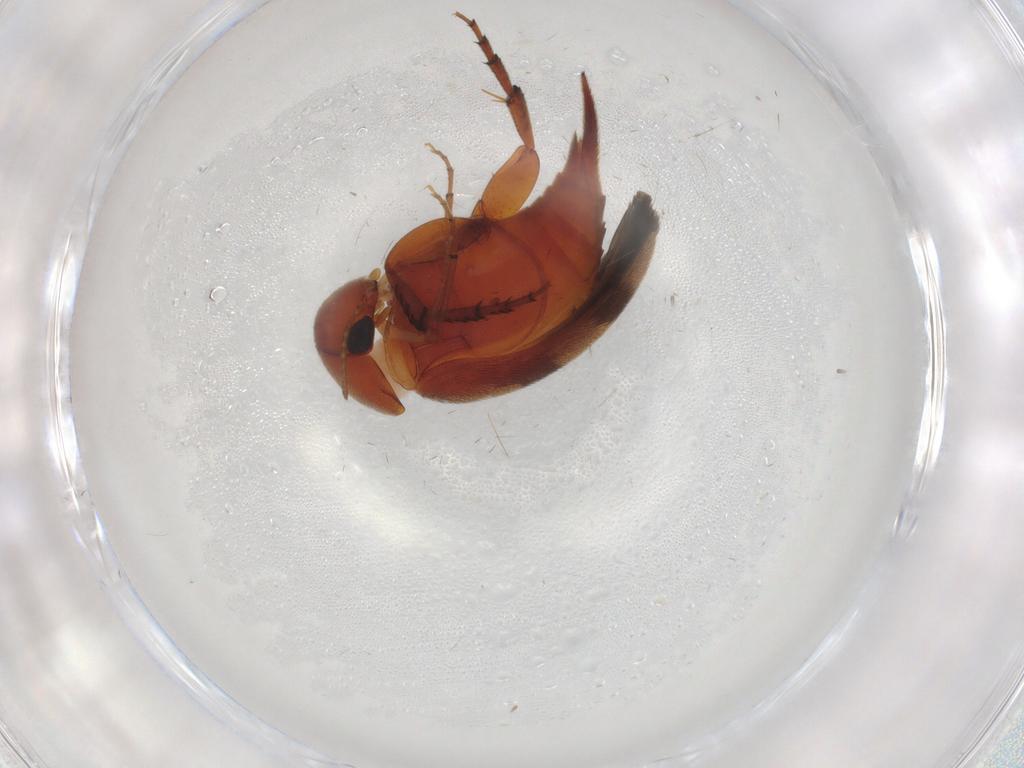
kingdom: Animalia
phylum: Arthropoda
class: Insecta
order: Coleoptera
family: Mordellidae
